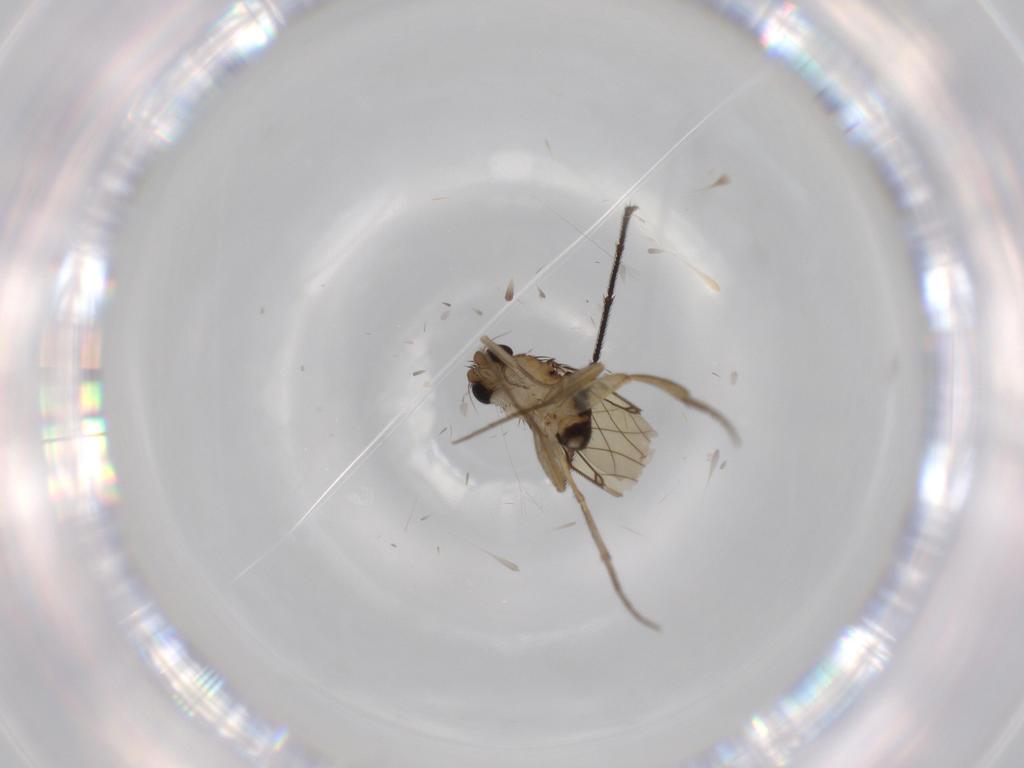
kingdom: Animalia
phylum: Arthropoda
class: Insecta
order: Diptera
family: Dolichopodidae
